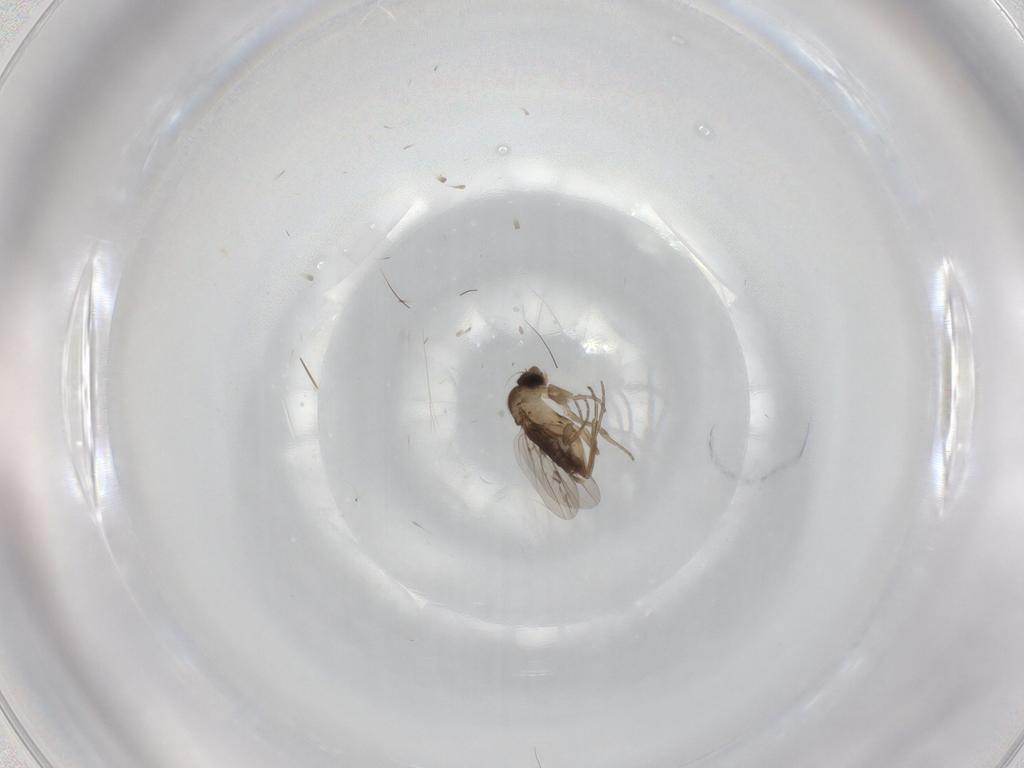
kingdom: Animalia
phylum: Arthropoda
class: Insecta
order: Diptera
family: Phoridae
